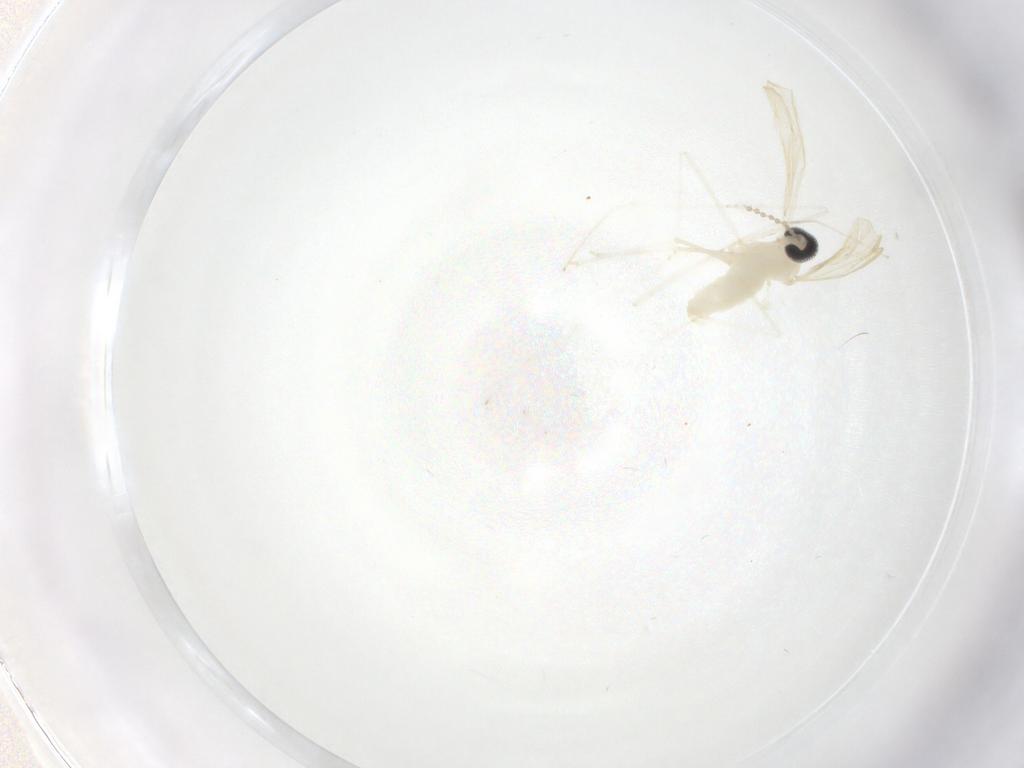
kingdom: Animalia
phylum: Arthropoda
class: Insecta
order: Diptera
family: Cecidomyiidae
